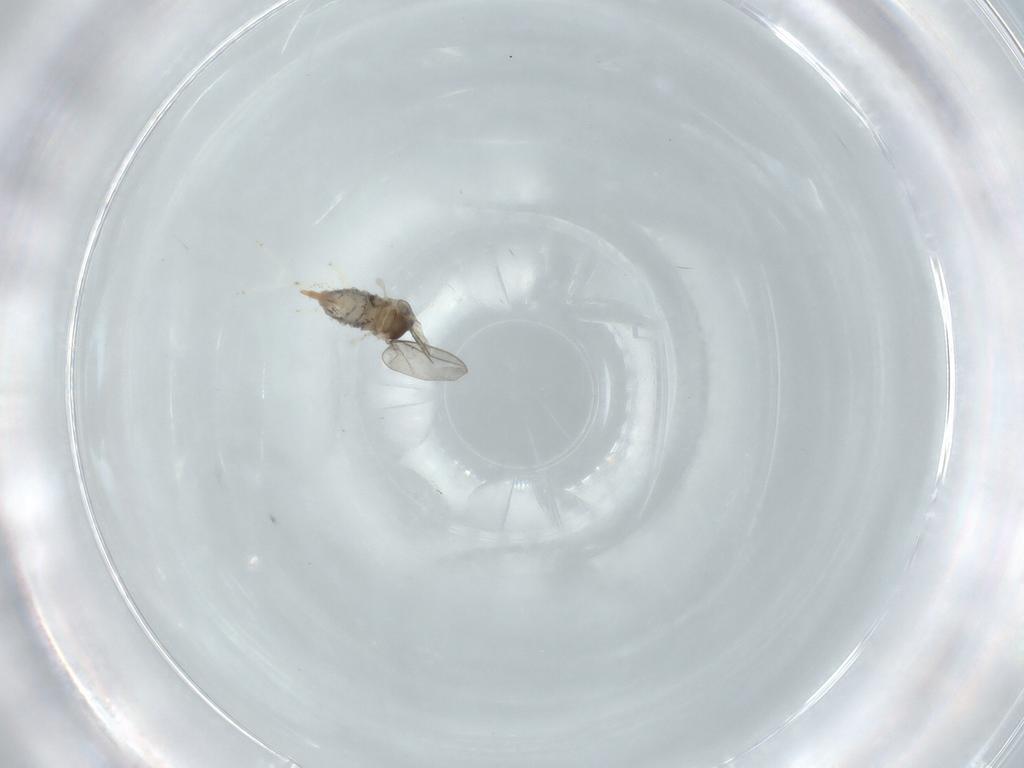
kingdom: Animalia
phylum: Arthropoda
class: Insecta
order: Diptera
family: Cecidomyiidae
